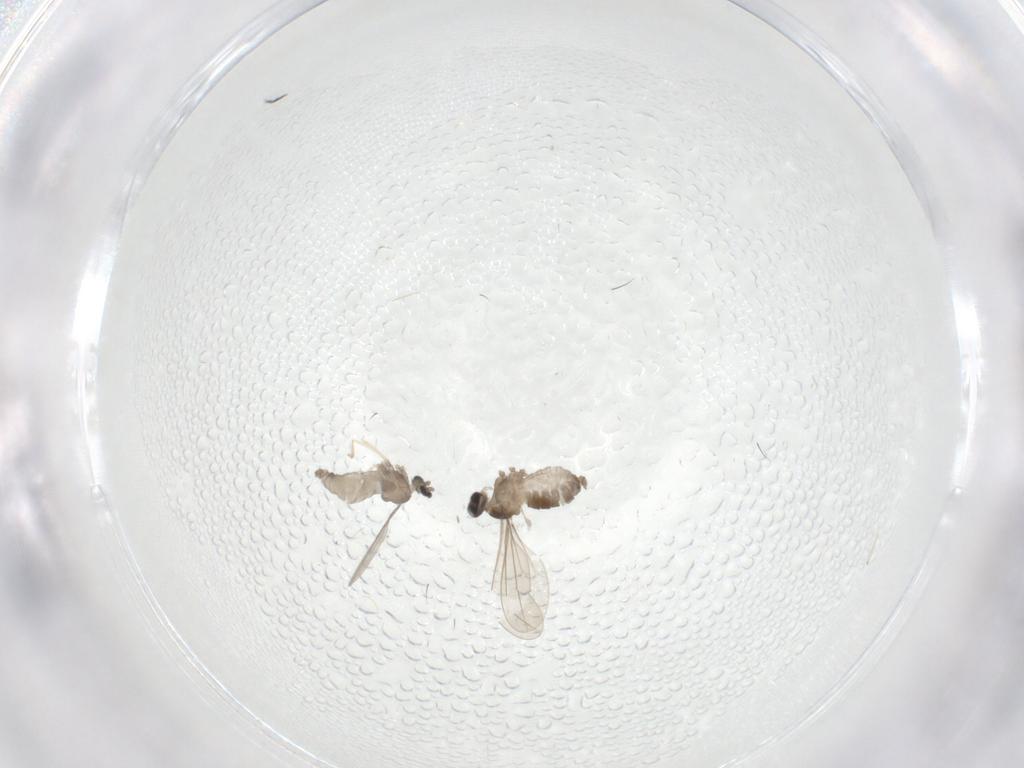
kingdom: Animalia
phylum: Arthropoda
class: Insecta
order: Diptera
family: Chironomidae
